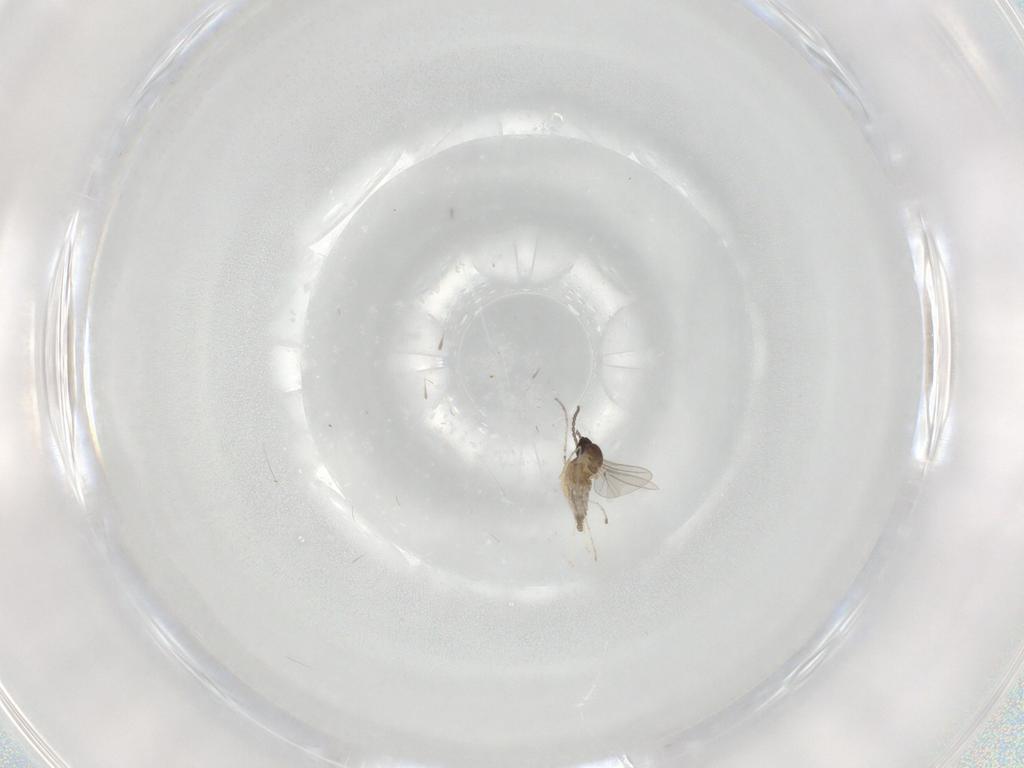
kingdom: Animalia
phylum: Arthropoda
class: Insecta
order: Diptera
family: Cecidomyiidae
